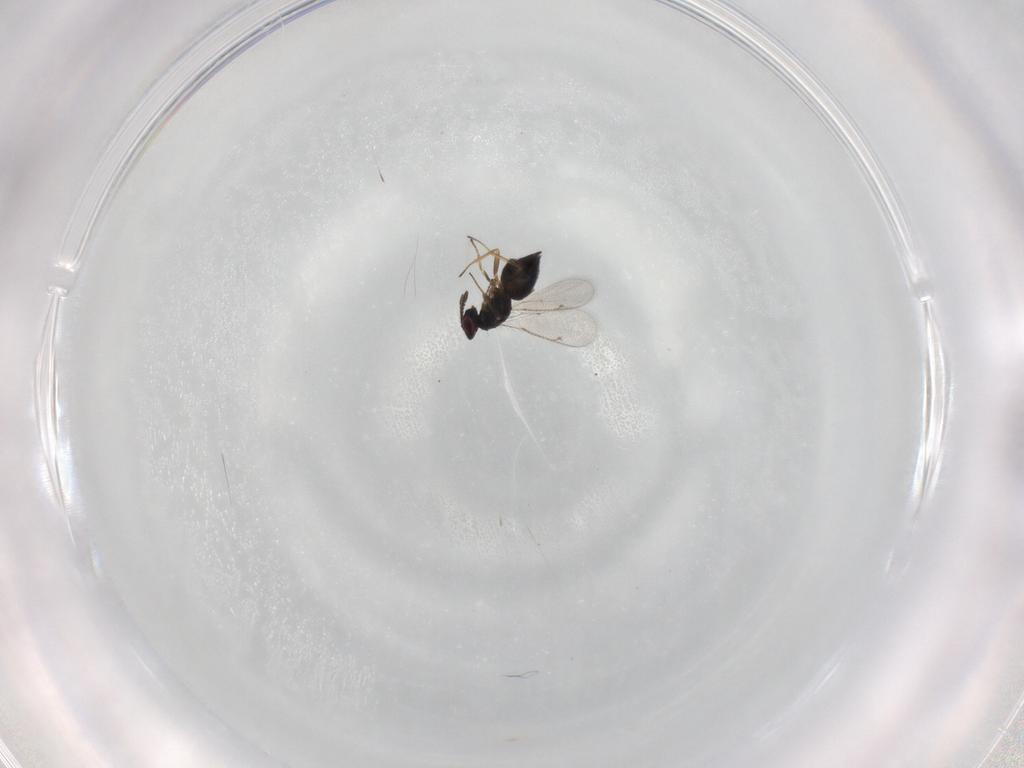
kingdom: Animalia
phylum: Arthropoda
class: Insecta
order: Hymenoptera
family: Tetracampidae
